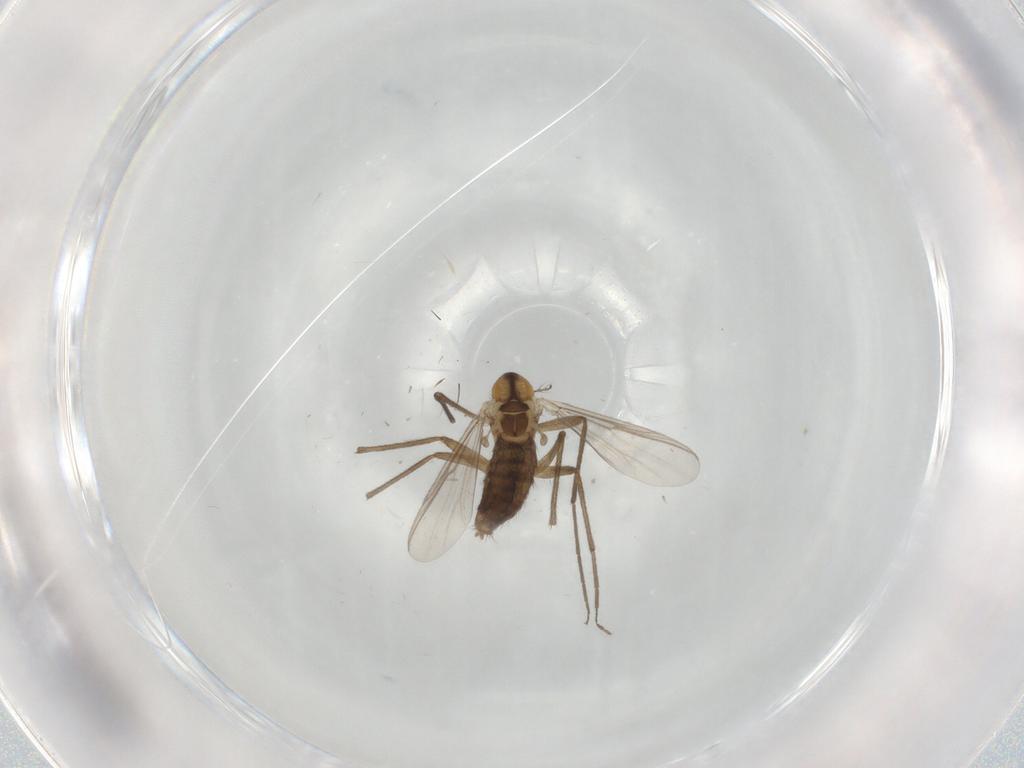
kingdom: Animalia
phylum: Arthropoda
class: Insecta
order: Diptera
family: Chironomidae
